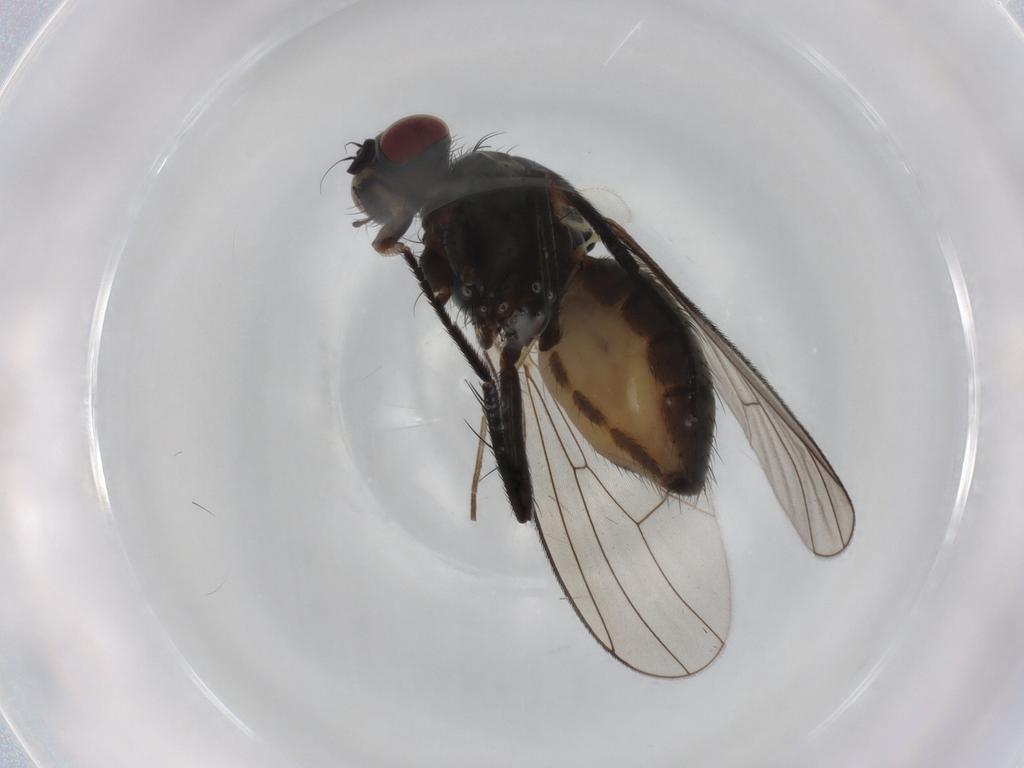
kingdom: Animalia
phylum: Arthropoda
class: Insecta
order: Diptera
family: Muscidae
